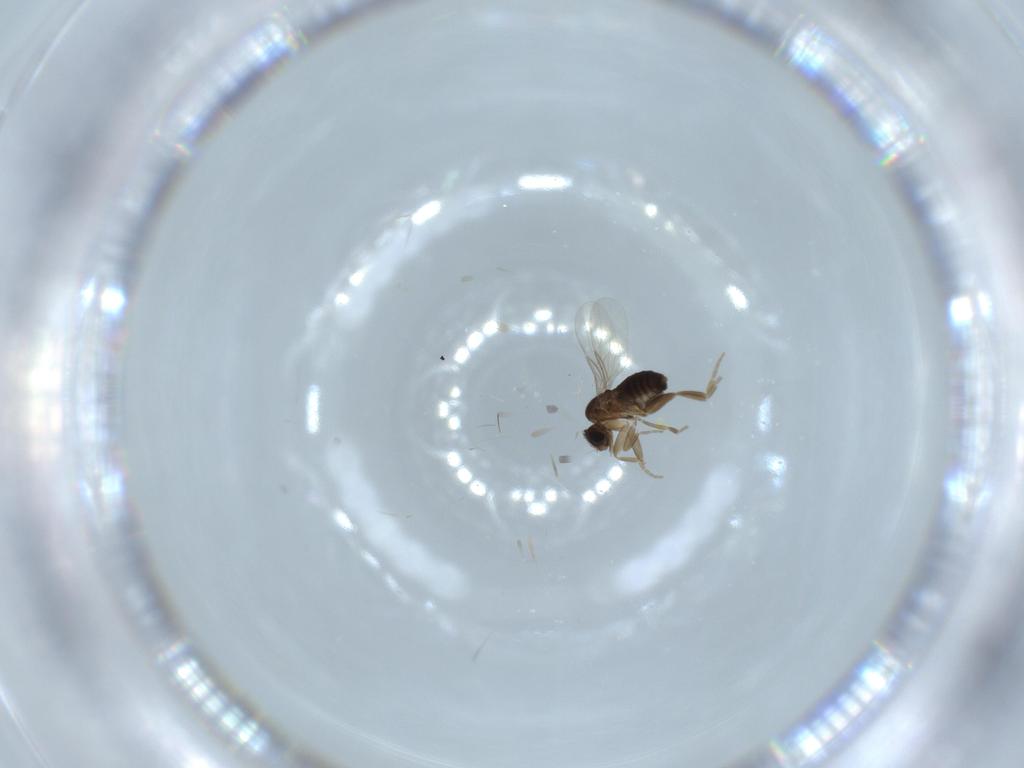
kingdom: Animalia
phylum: Arthropoda
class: Insecta
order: Diptera
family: Phoridae
